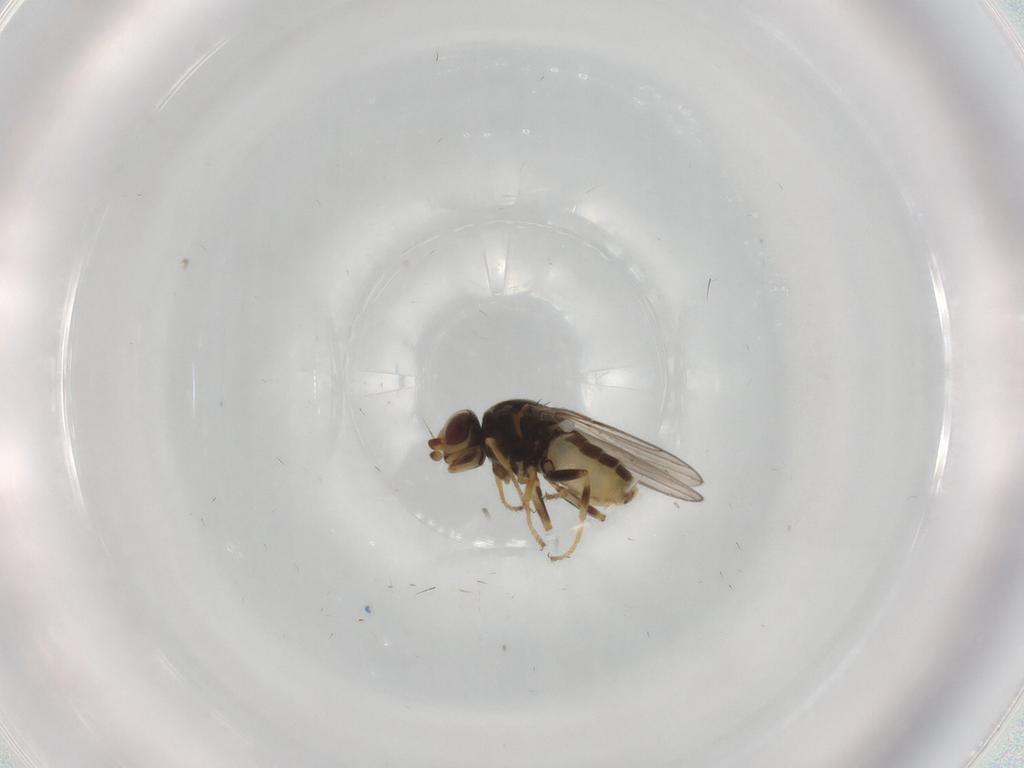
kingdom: Animalia
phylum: Arthropoda
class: Insecta
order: Diptera
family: Chloropidae
